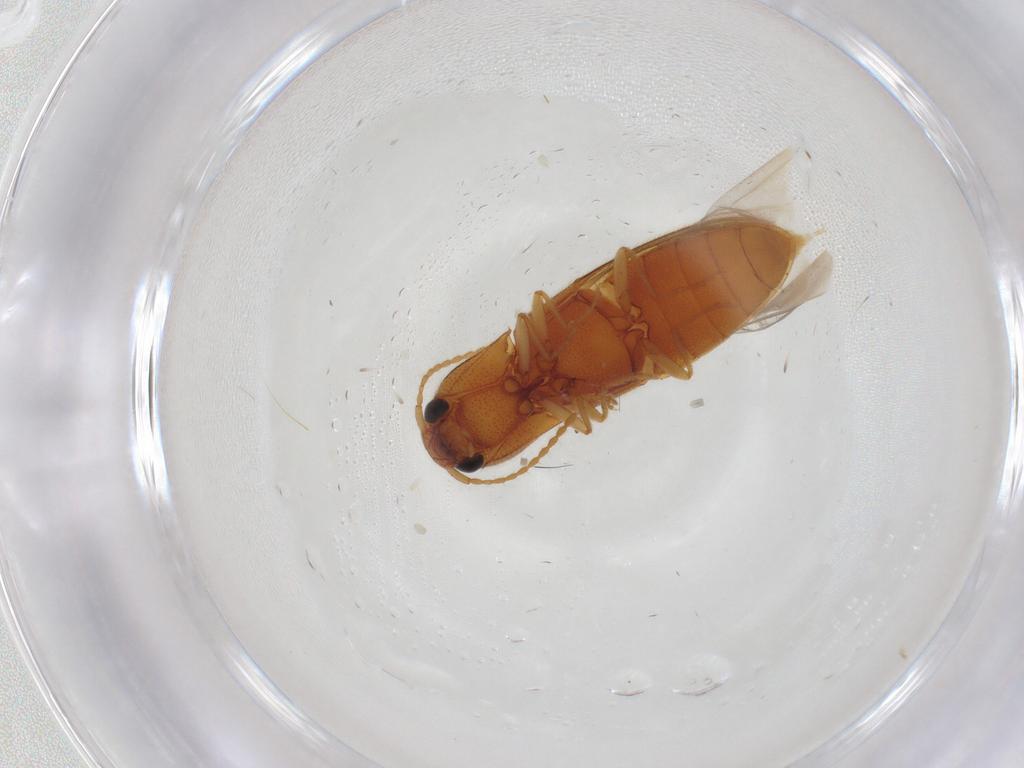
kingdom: Animalia
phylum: Arthropoda
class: Insecta
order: Coleoptera
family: Elateridae
